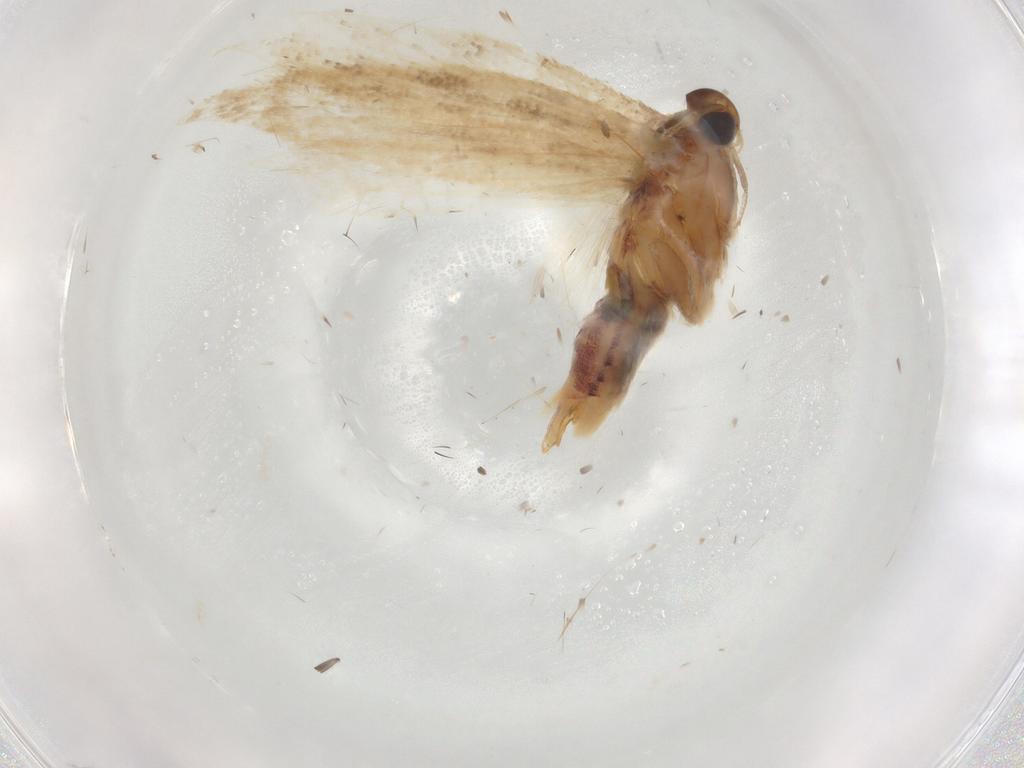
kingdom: Animalia
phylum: Arthropoda
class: Insecta
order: Lepidoptera
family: Gelechiidae
